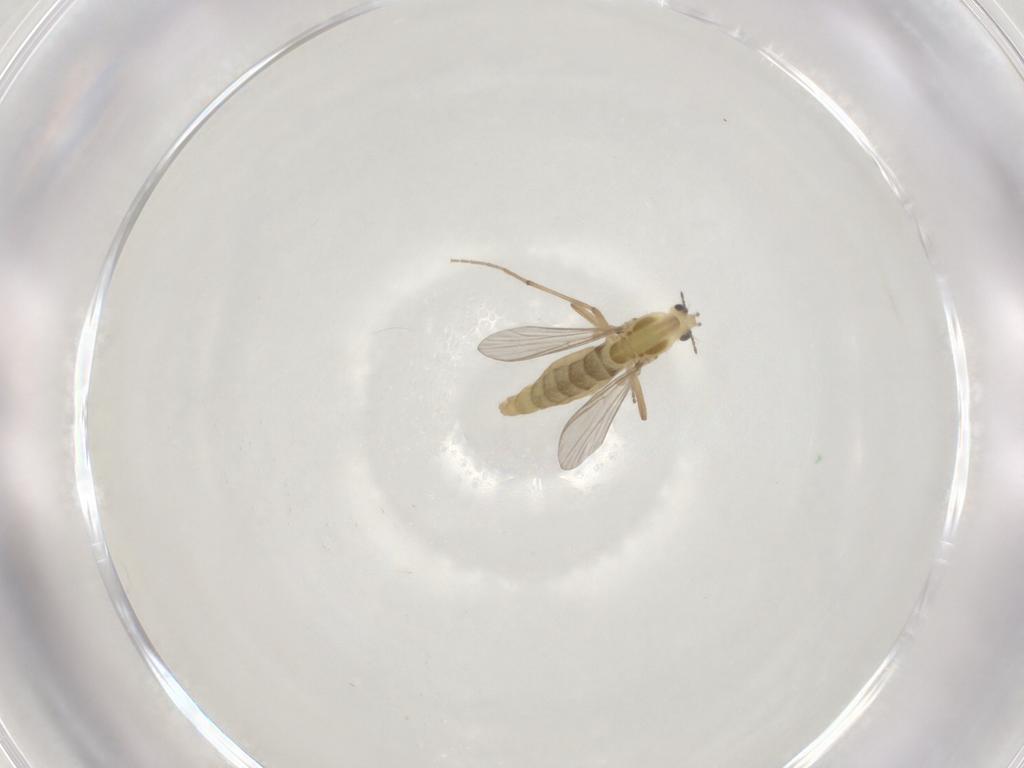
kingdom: Animalia
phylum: Arthropoda
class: Insecta
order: Diptera
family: Chironomidae
